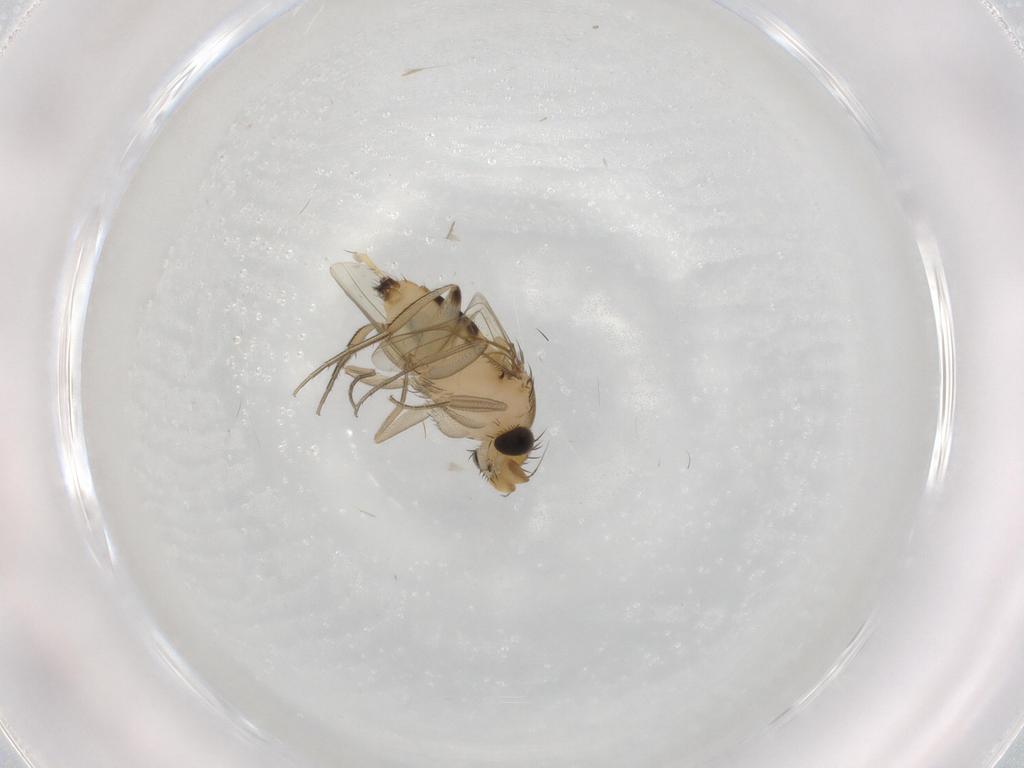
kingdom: Animalia
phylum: Arthropoda
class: Insecta
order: Diptera
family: Phoridae
